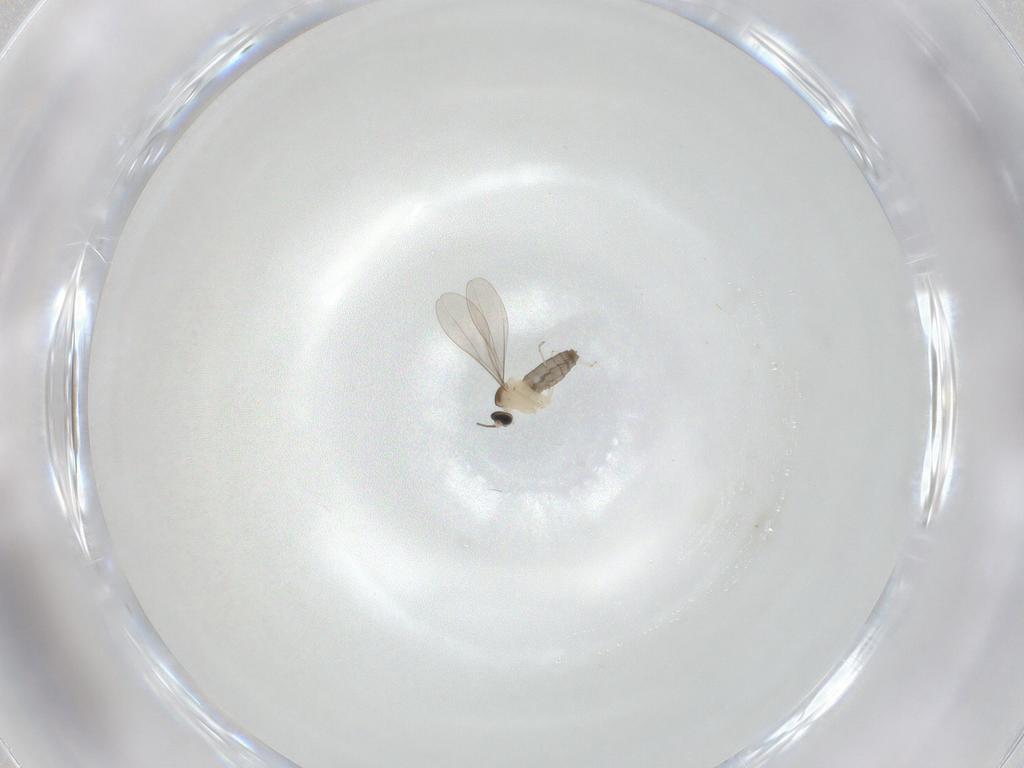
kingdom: Animalia
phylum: Arthropoda
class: Insecta
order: Diptera
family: Cecidomyiidae
